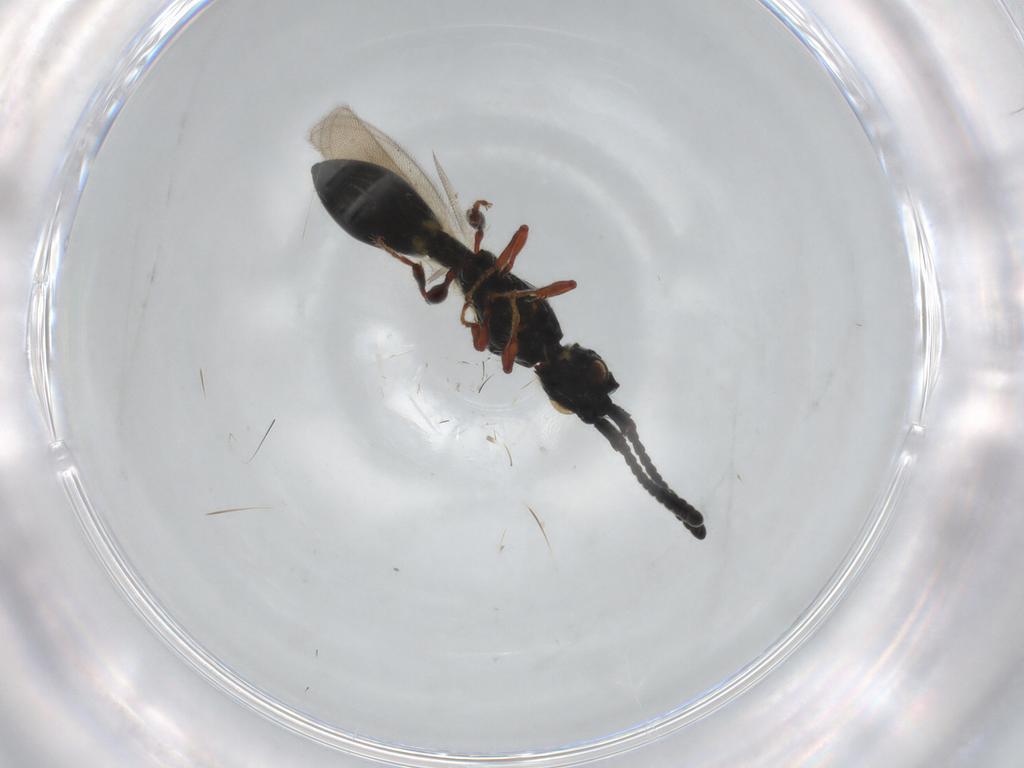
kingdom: Animalia
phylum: Arthropoda
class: Insecta
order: Hymenoptera
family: Diapriidae
